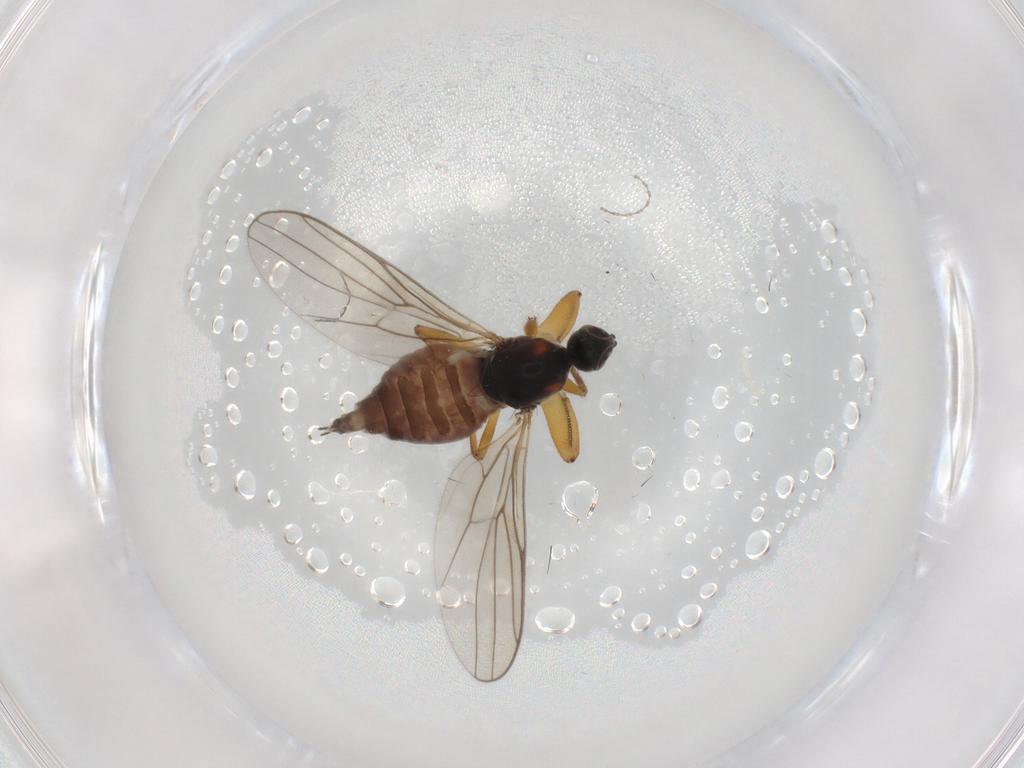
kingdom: Animalia
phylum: Arthropoda
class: Insecta
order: Diptera
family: Hybotidae
